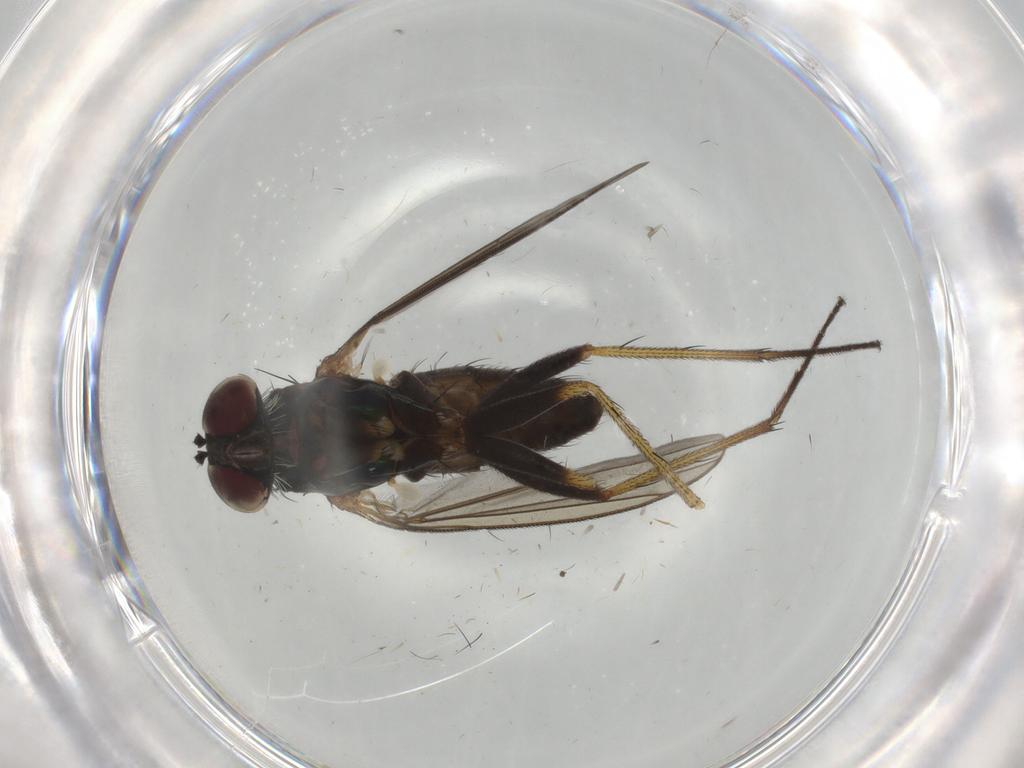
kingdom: Animalia
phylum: Arthropoda
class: Insecta
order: Diptera
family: Dolichopodidae
